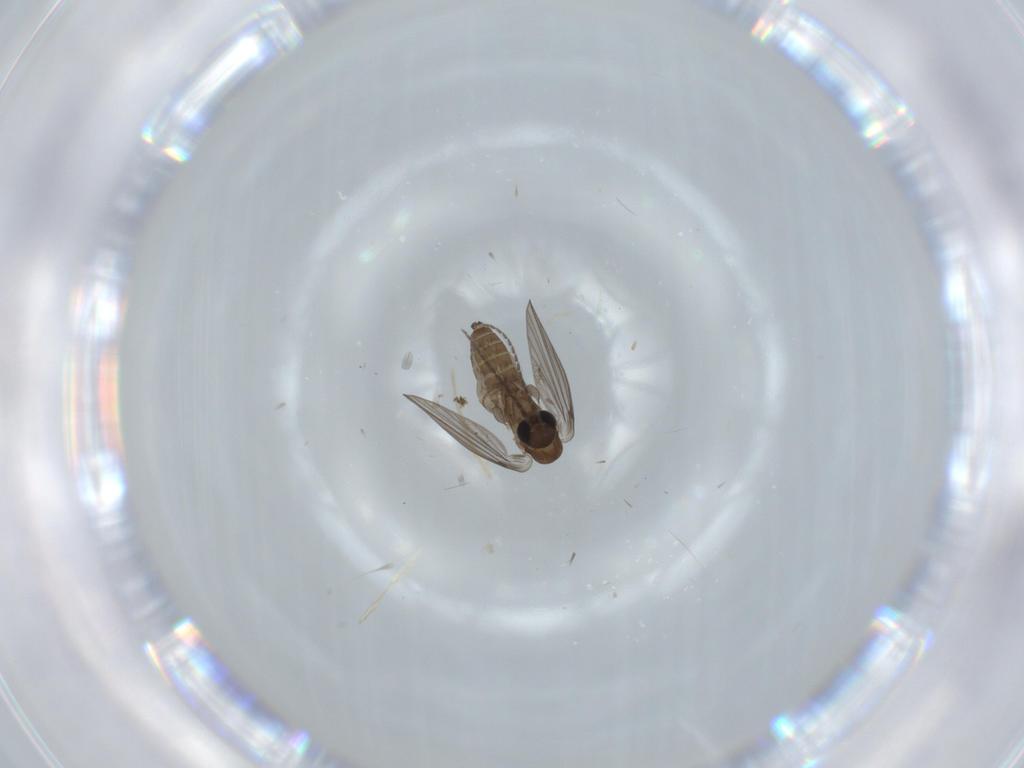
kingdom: Animalia
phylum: Arthropoda
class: Insecta
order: Diptera
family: Psychodidae
